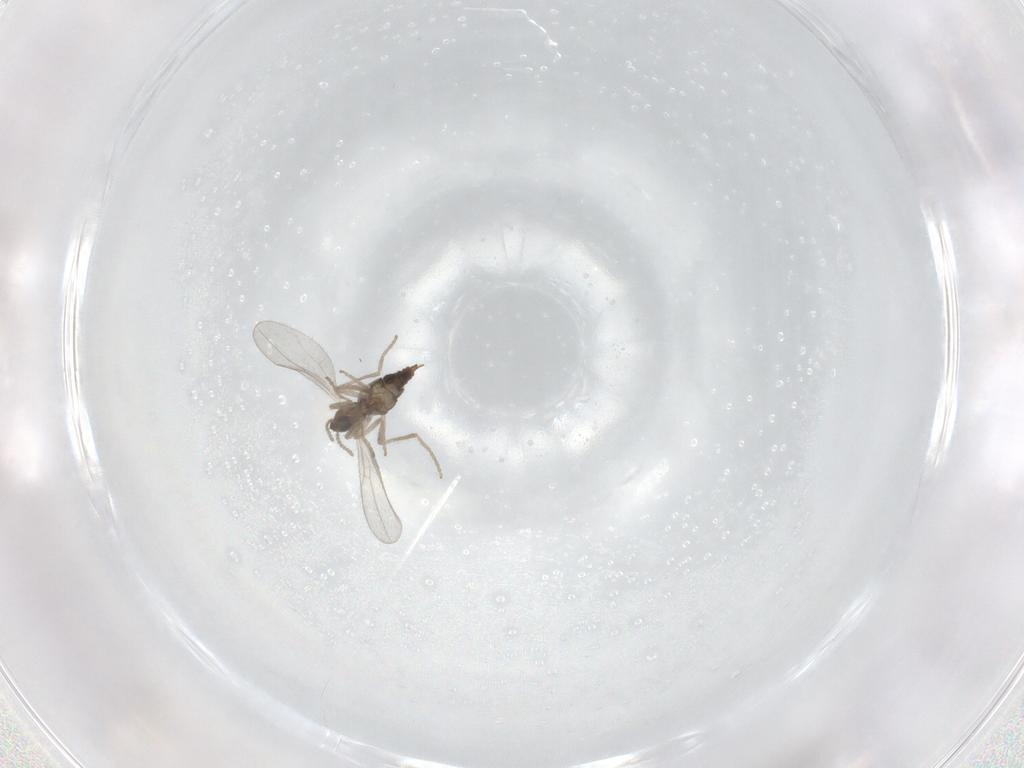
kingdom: Animalia
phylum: Arthropoda
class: Insecta
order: Diptera
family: Cecidomyiidae
